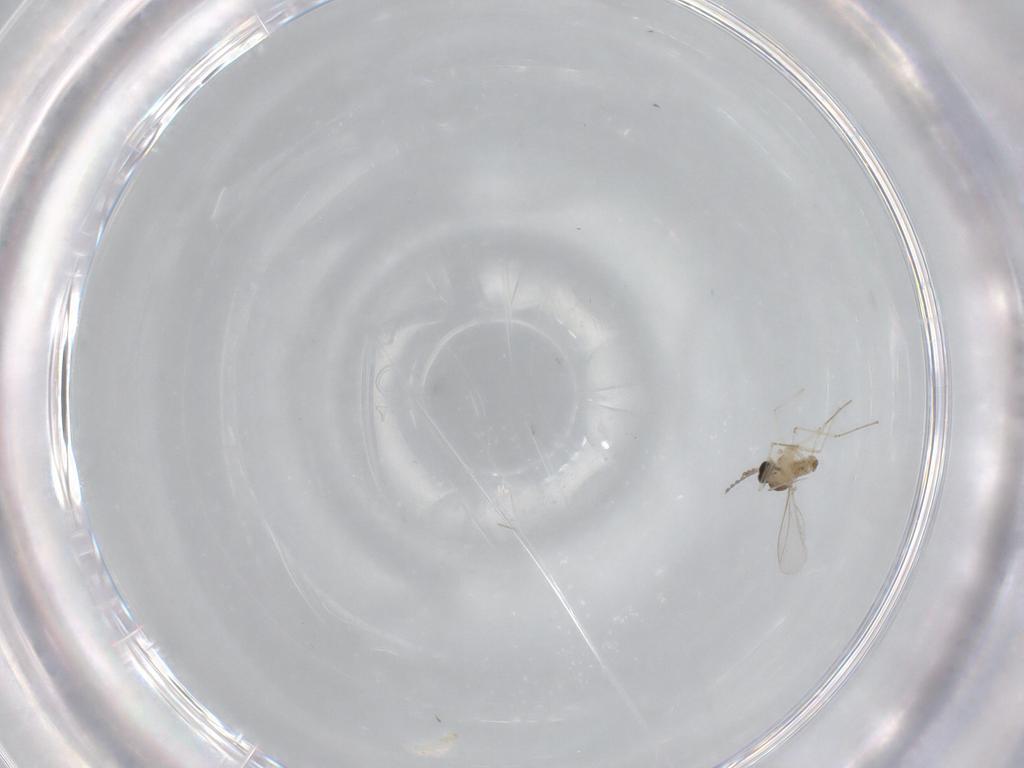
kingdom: Animalia
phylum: Arthropoda
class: Insecta
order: Diptera
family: Cecidomyiidae
